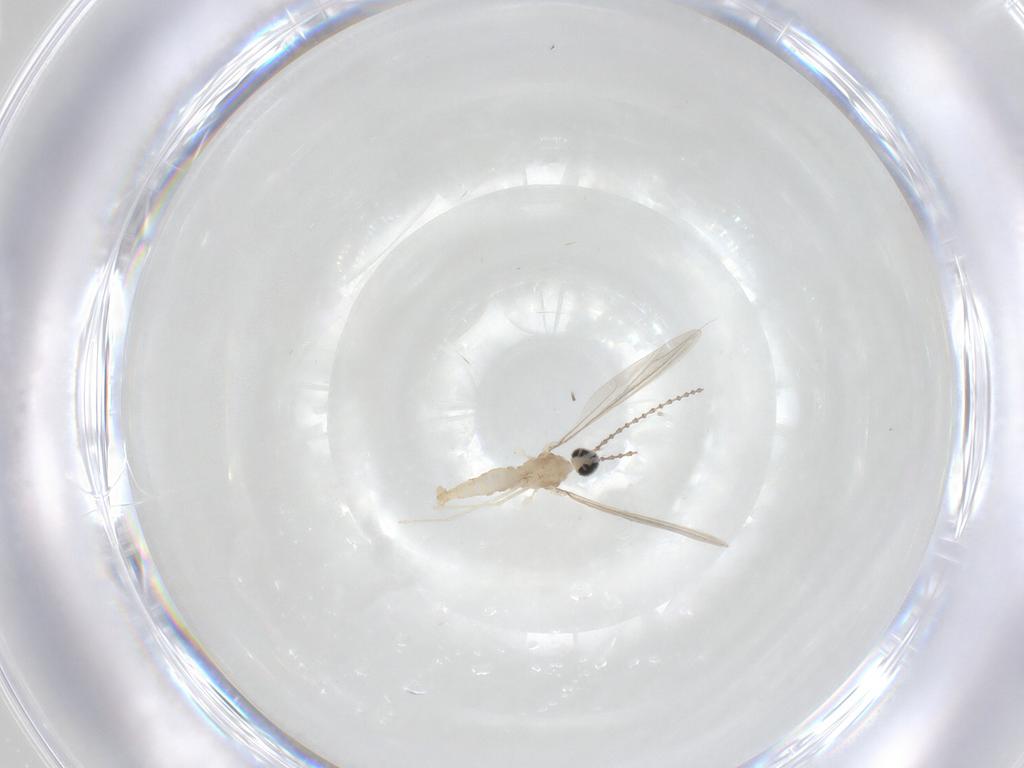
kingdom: Animalia
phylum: Arthropoda
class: Insecta
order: Diptera
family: Cecidomyiidae
